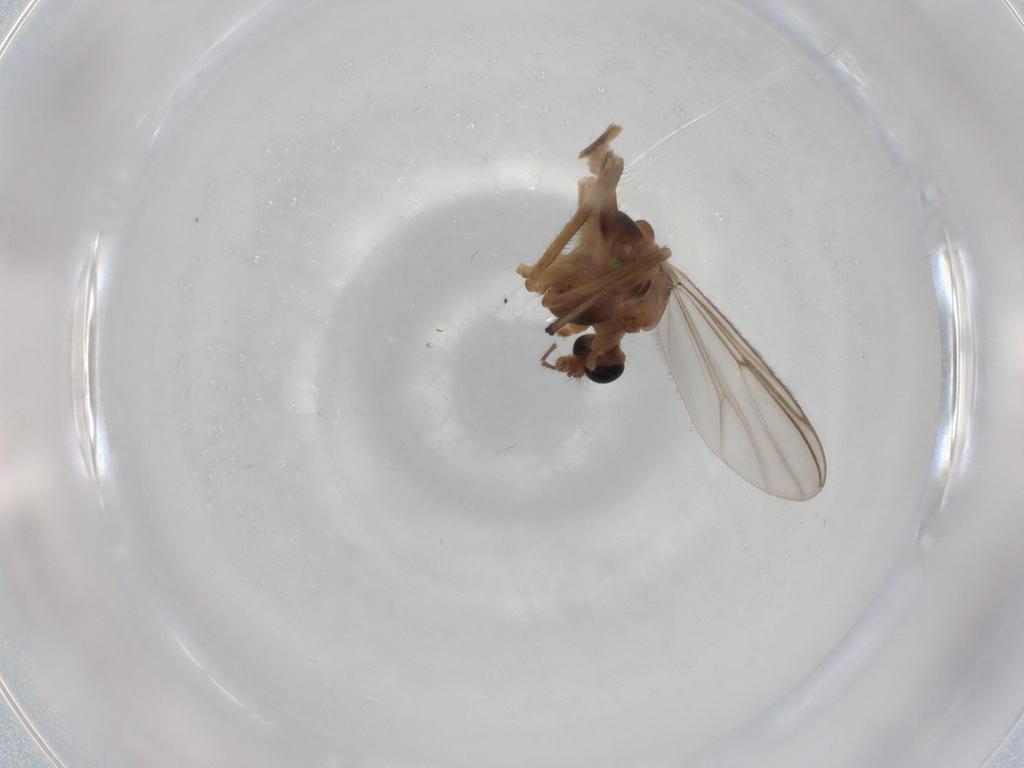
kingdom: Animalia
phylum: Arthropoda
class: Insecta
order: Diptera
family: Chironomidae
